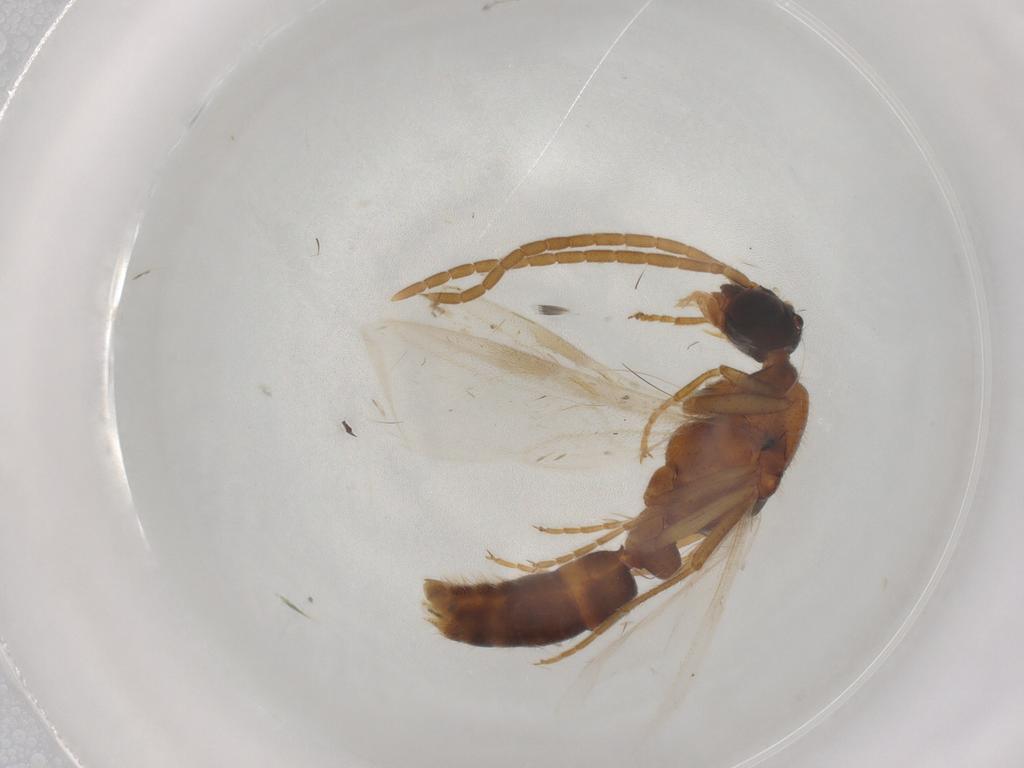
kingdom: Animalia
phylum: Arthropoda
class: Insecta
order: Hymenoptera
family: Formicidae
